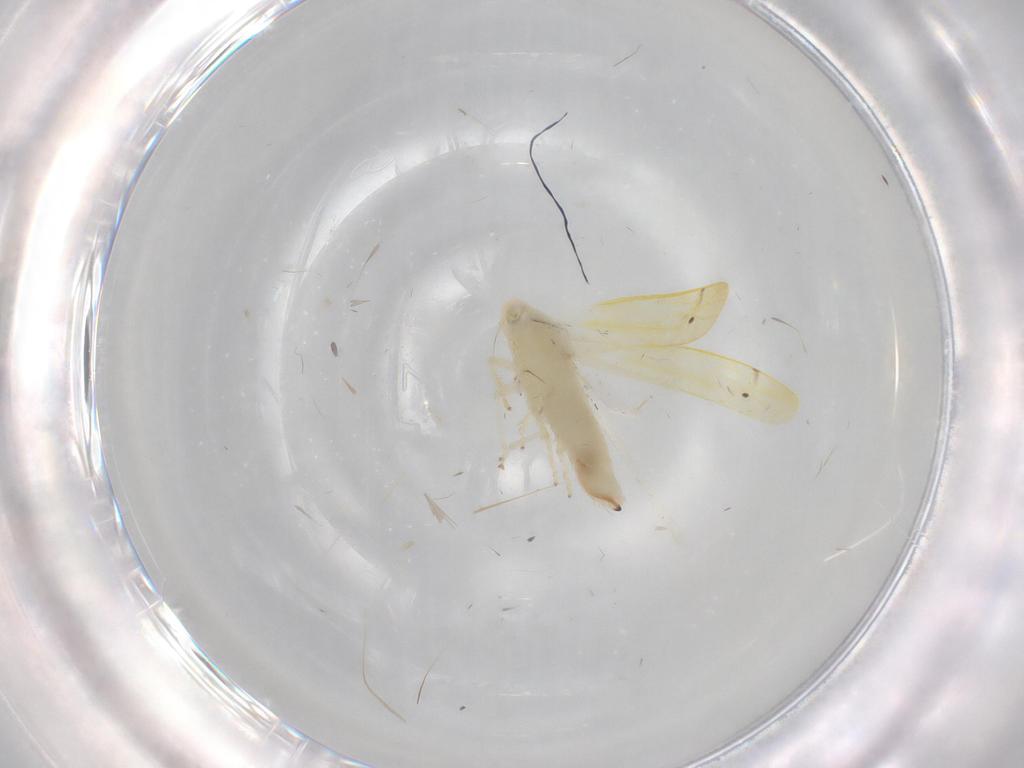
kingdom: Animalia
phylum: Arthropoda
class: Insecta
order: Hemiptera
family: Cicadellidae
